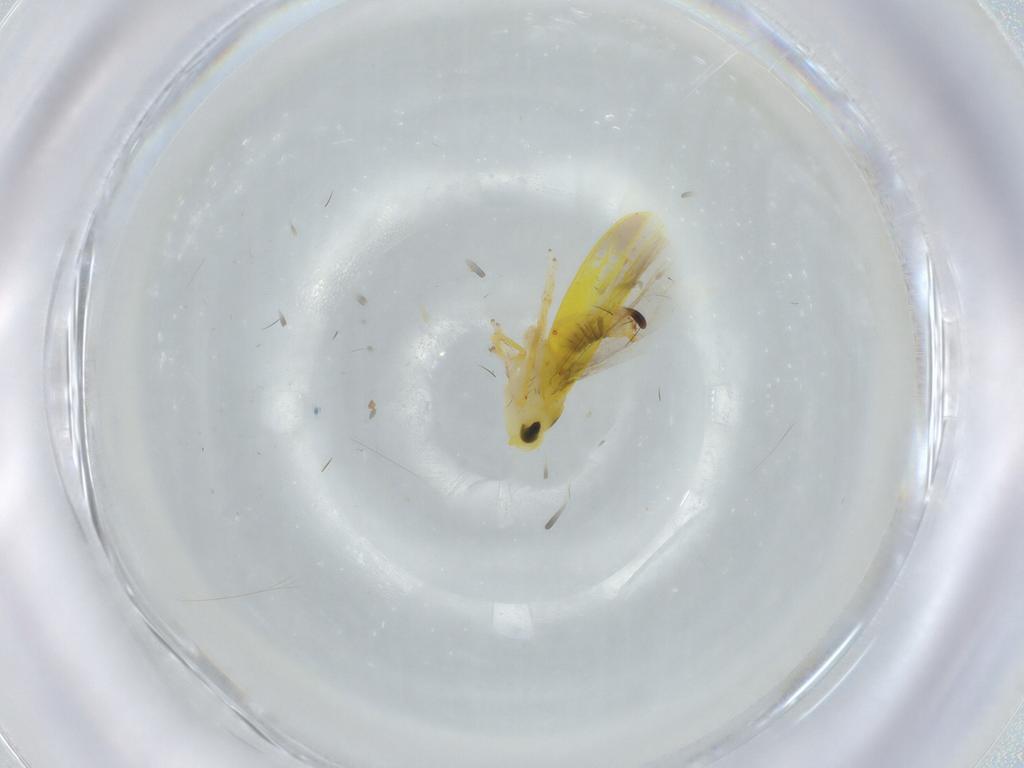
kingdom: Animalia
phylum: Arthropoda
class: Insecta
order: Hemiptera
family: Cicadellidae
